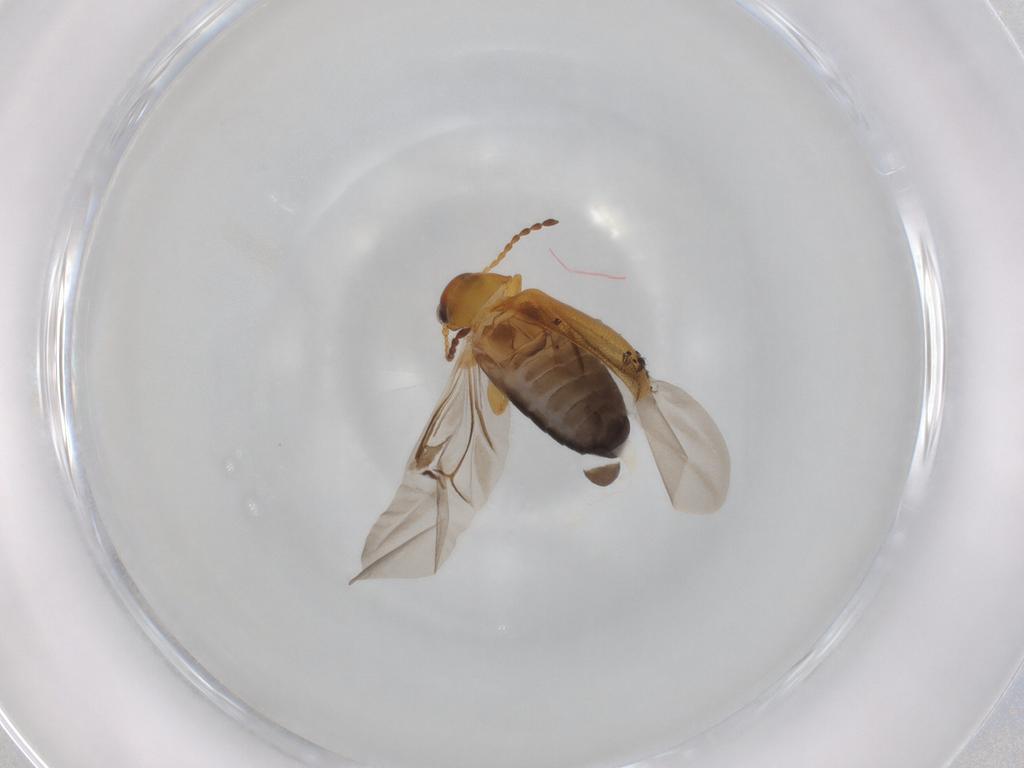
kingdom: Animalia
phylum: Arthropoda
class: Insecta
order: Coleoptera
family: Chrysomelidae
